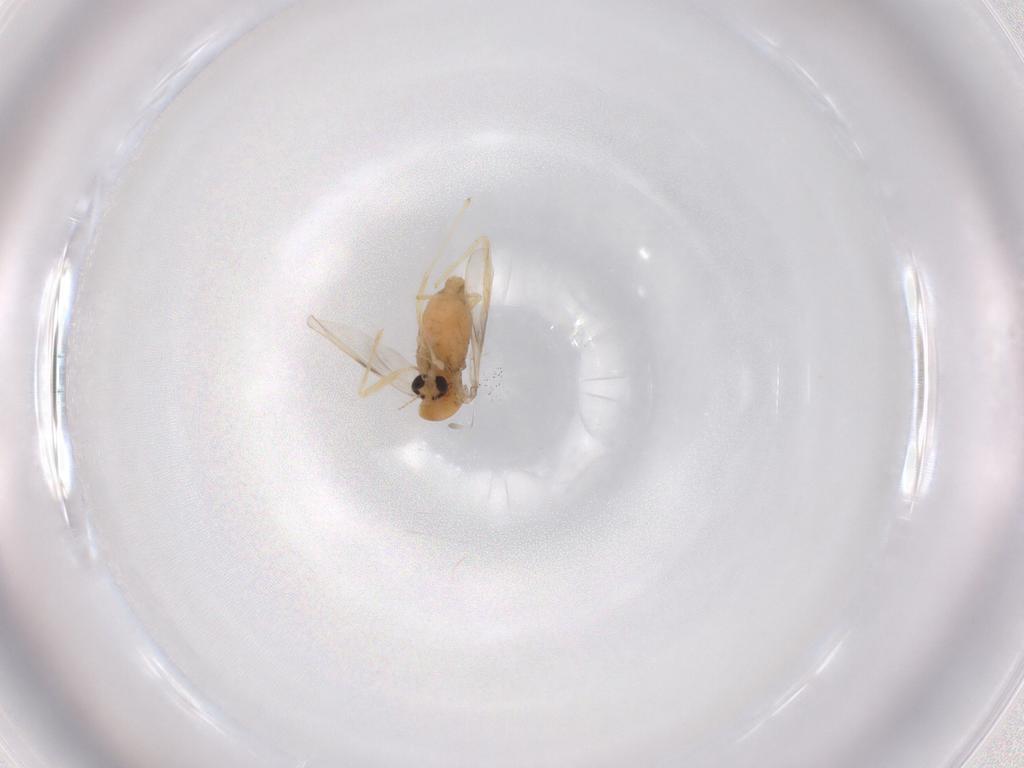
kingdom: Animalia
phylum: Arthropoda
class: Insecta
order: Diptera
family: Chironomidae
